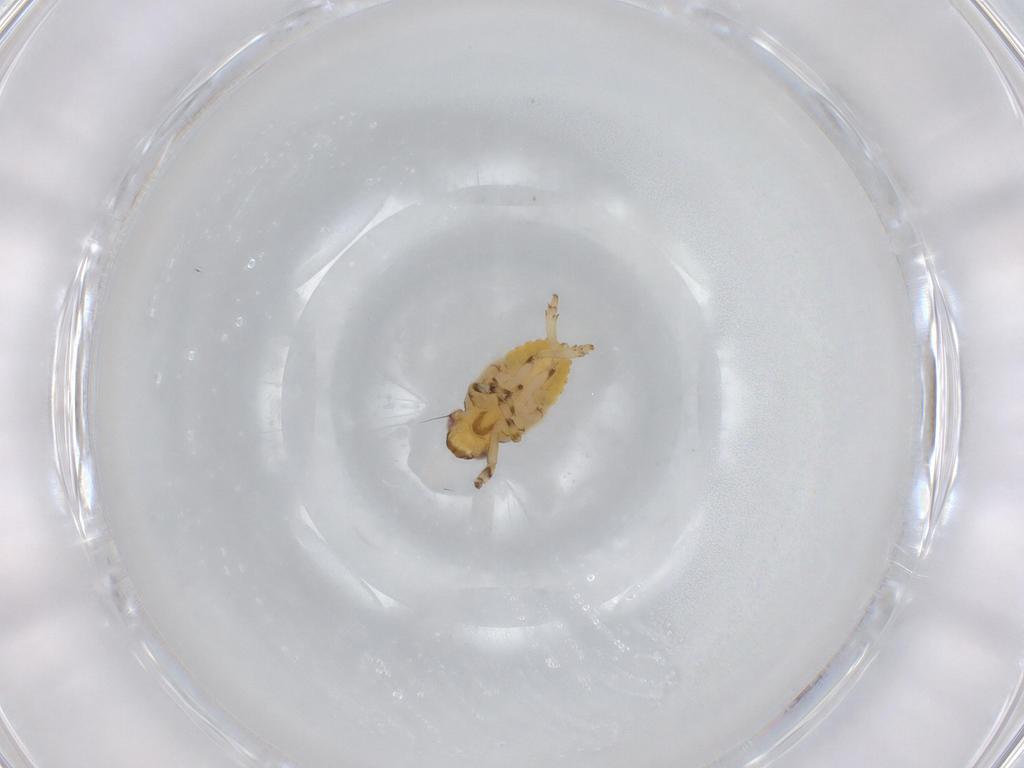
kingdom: Animalia
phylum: Arthropoda
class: Insecta
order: Hemiptera
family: Issidae
